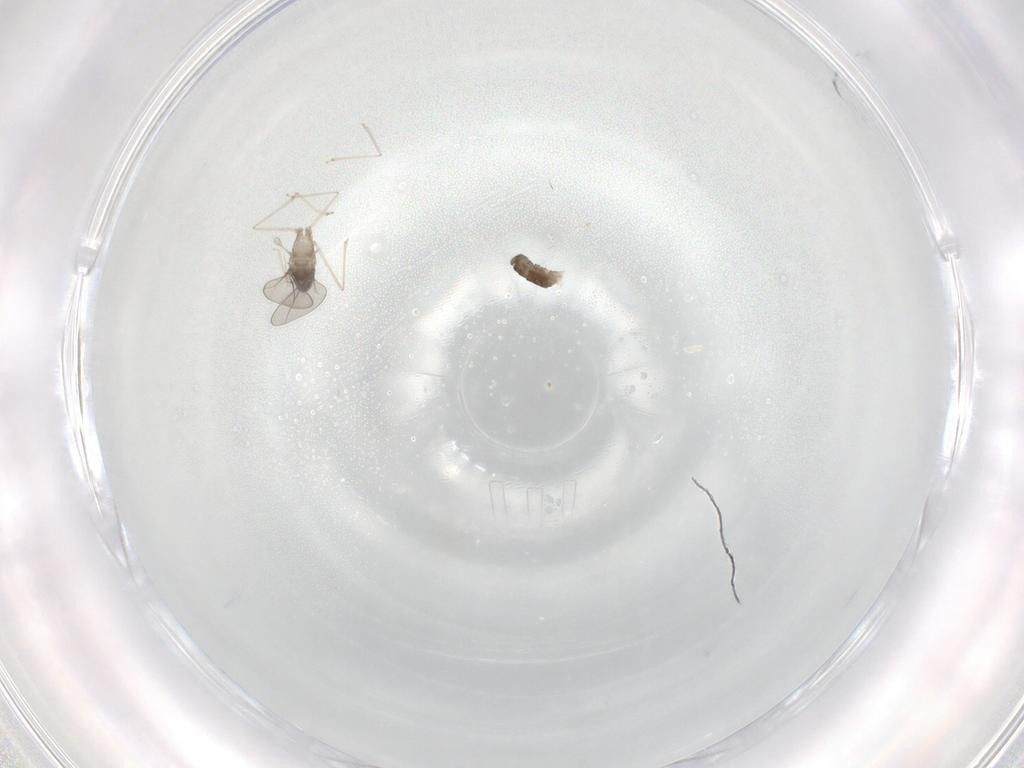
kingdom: Animalia
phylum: Arthropoda
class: Insecta
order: Diptera
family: Cecidomyiidae
